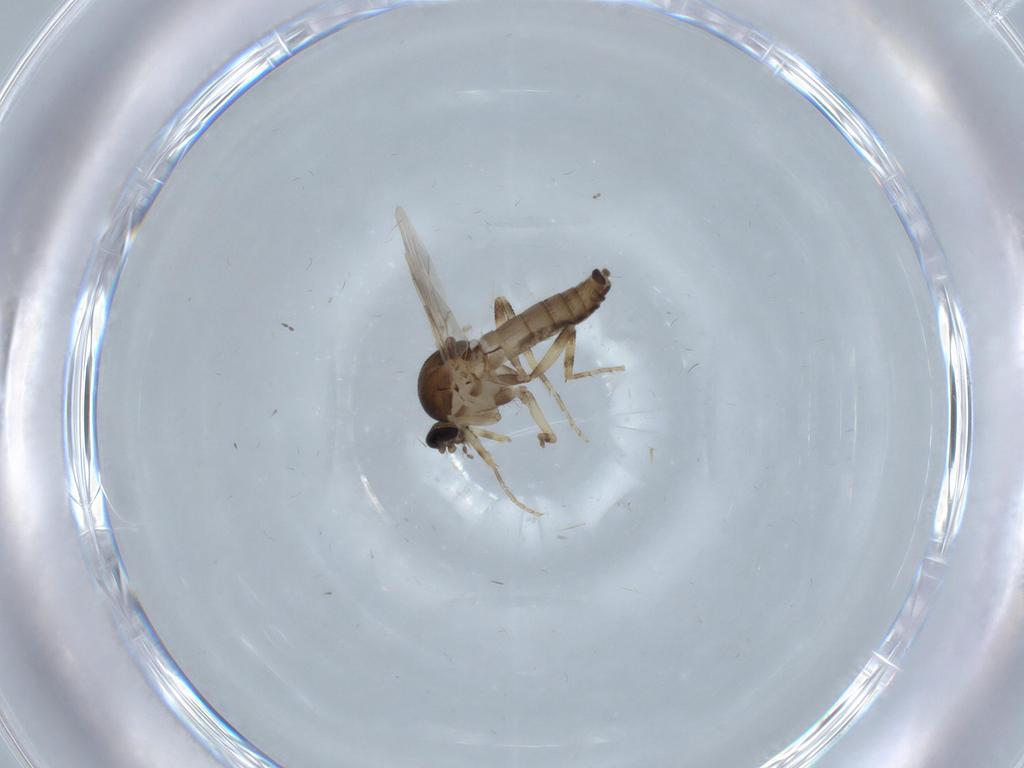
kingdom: Animalia
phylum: Arthropoda
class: Insecta
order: Diptera
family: Ceratopogonidae
